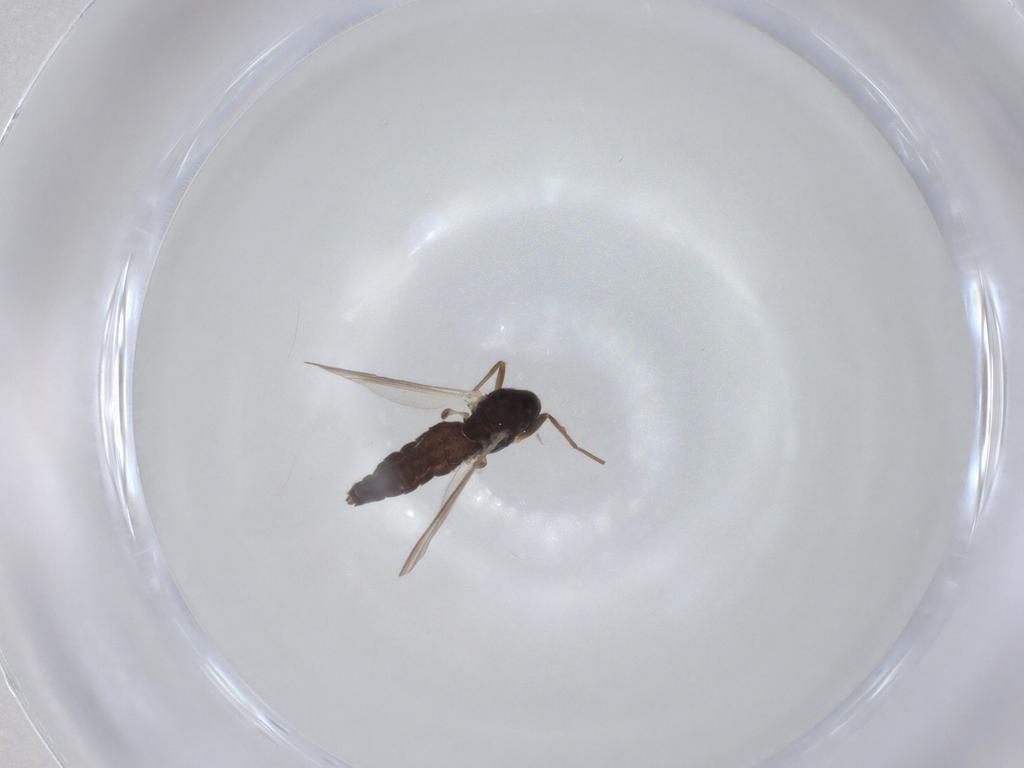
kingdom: Animalia
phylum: Arthropoda
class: Insecta
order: Diptera
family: Chironomidae
